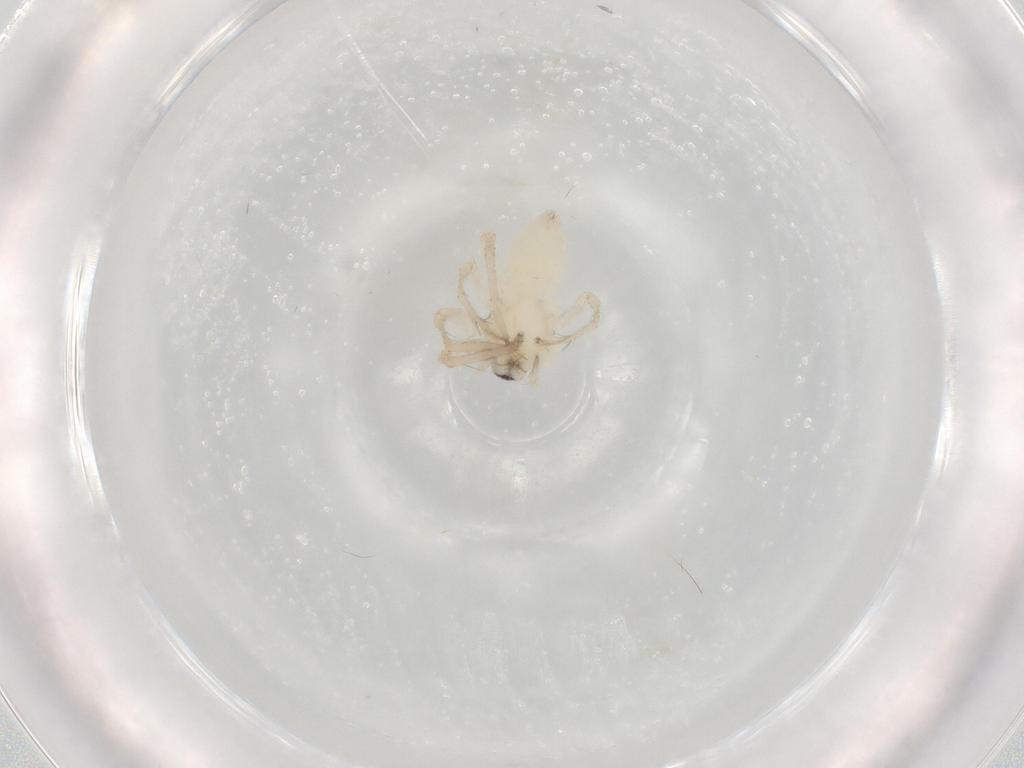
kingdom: Animalia
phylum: Arthropoda
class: Arachnida
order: Araneae
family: Anyphaenidae
